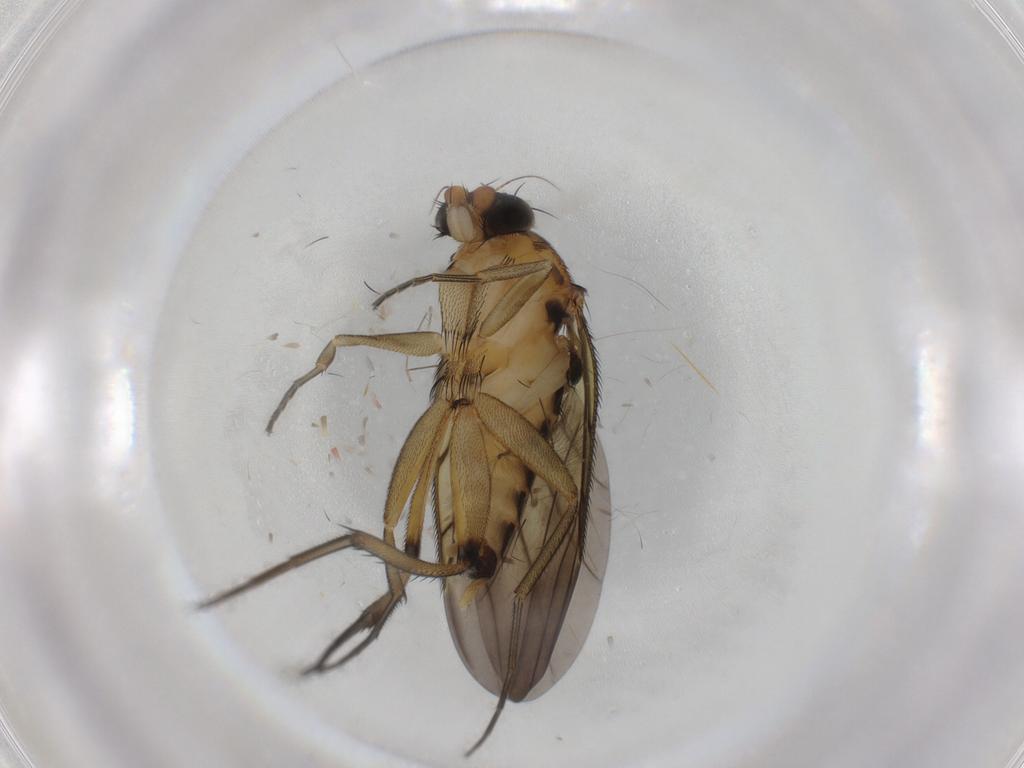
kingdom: Animalia
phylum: Arthropoda
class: Insecta
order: Diptera
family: Chironomidae
